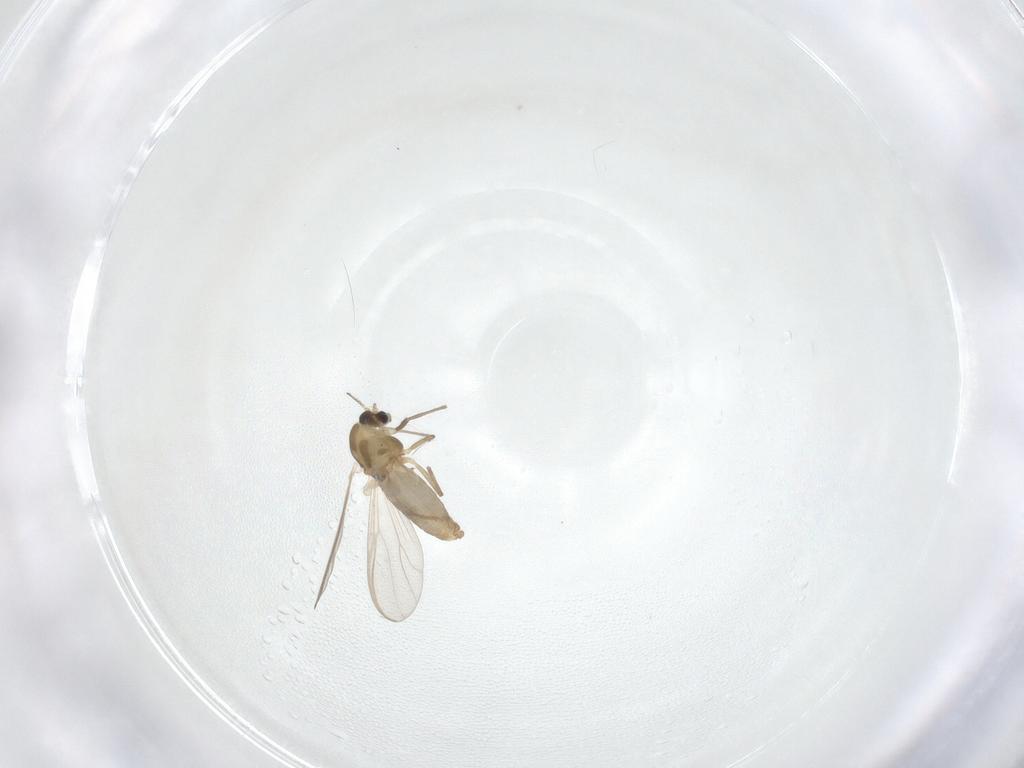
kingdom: Animalia
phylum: Arthropoda
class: Insecta
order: Diptera
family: Chironomidae
